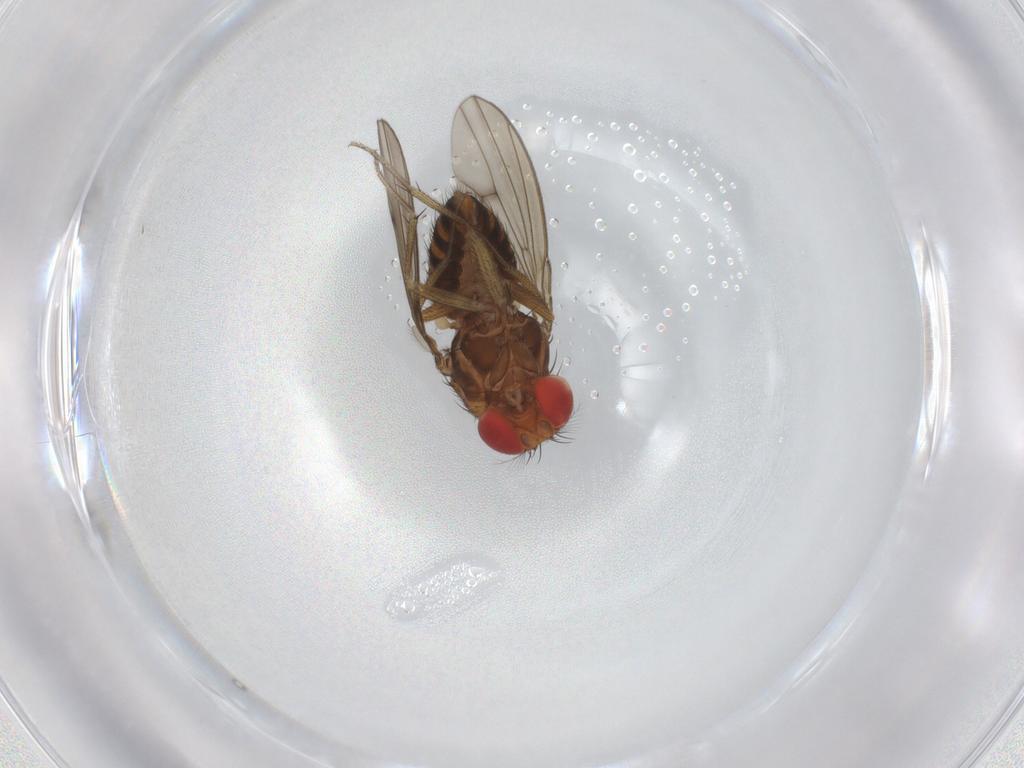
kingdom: Animalia
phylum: Arthropoda
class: Insecta
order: Diptera
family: Drosophilidae
